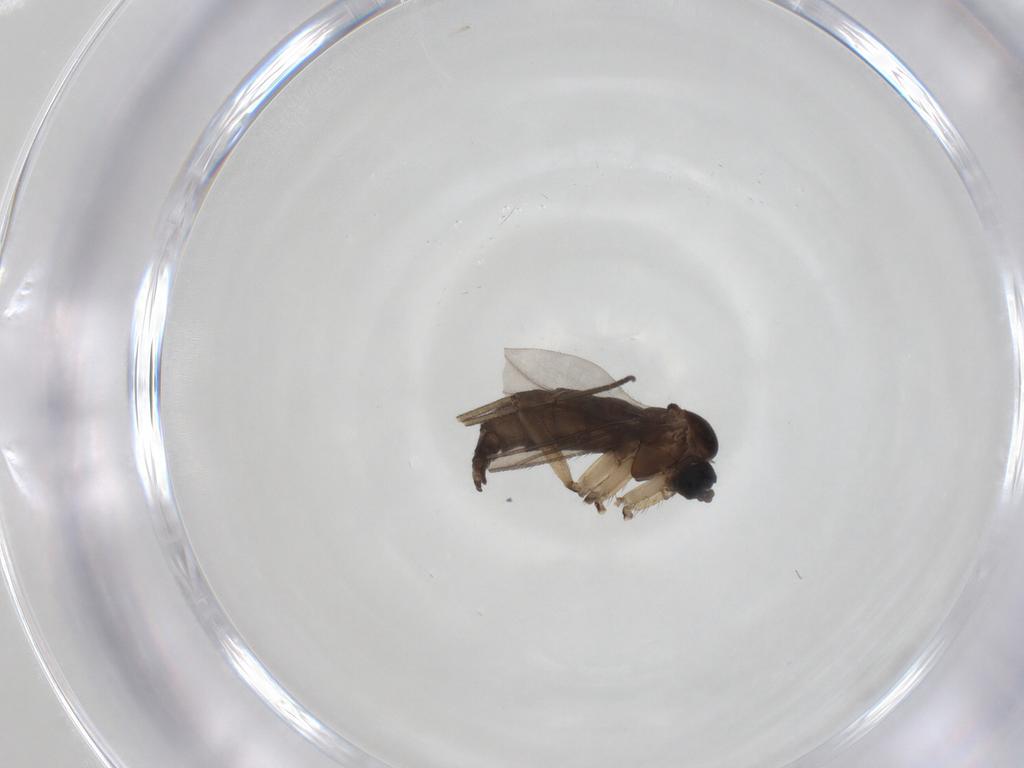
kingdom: Animalia
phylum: Arthropoda
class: Insecta
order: Diptera
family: Sciaridae
